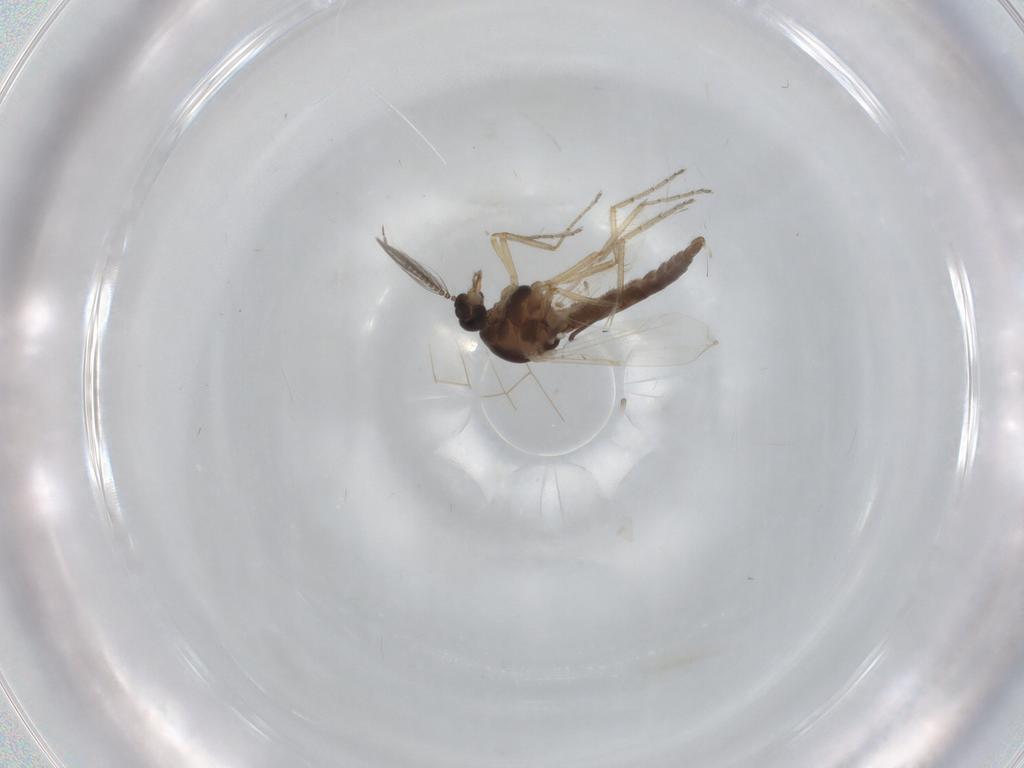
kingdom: Animalia
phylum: Arthropoda
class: Insecta
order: Diptera
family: Ceratopogonidae
